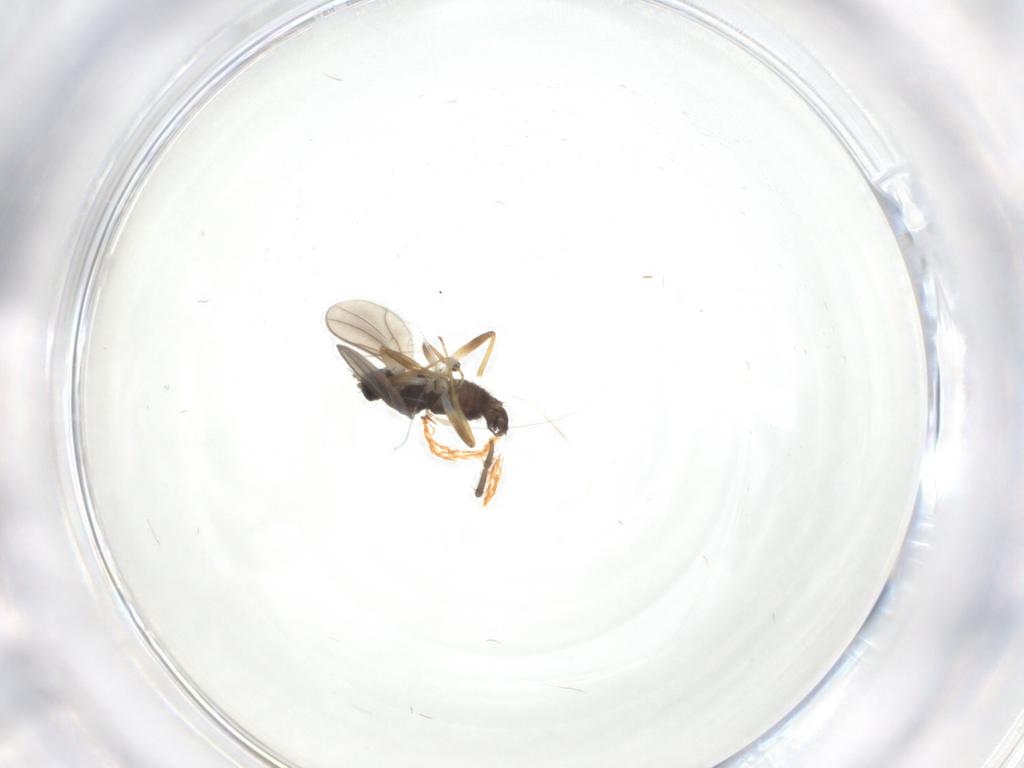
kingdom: Animalia
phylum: Arthropoda
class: Insecta
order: Diptera
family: Hybotidae
